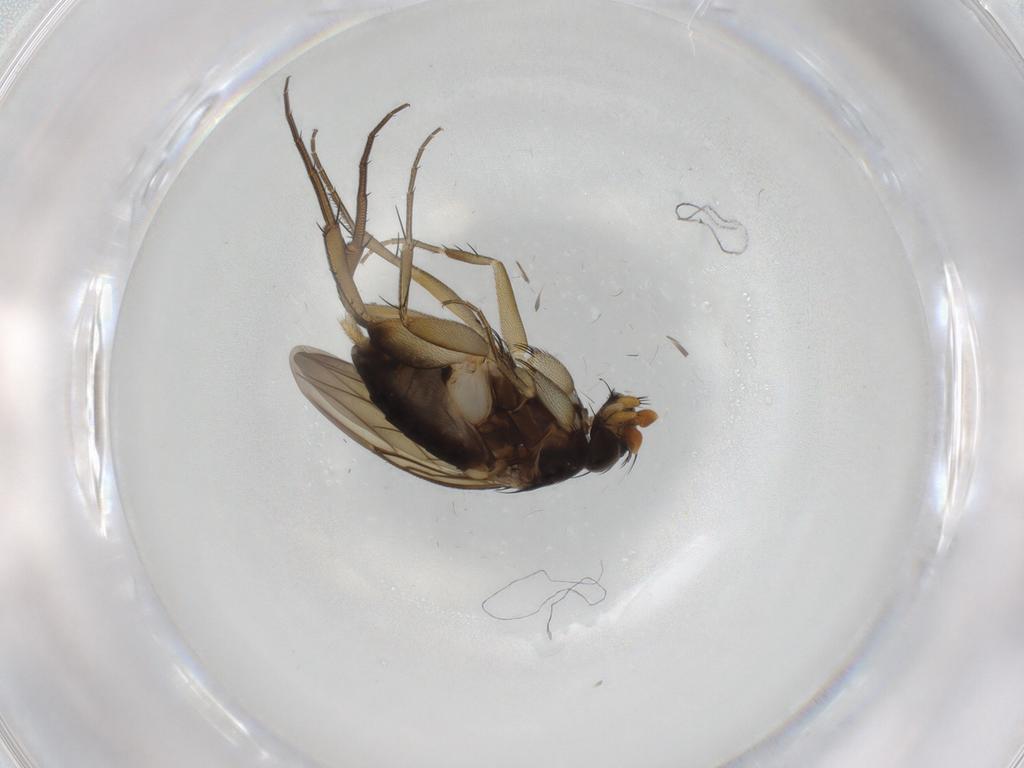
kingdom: Animalia
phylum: Arthropoda
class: Insecta
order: Diptera
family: Phoridae
